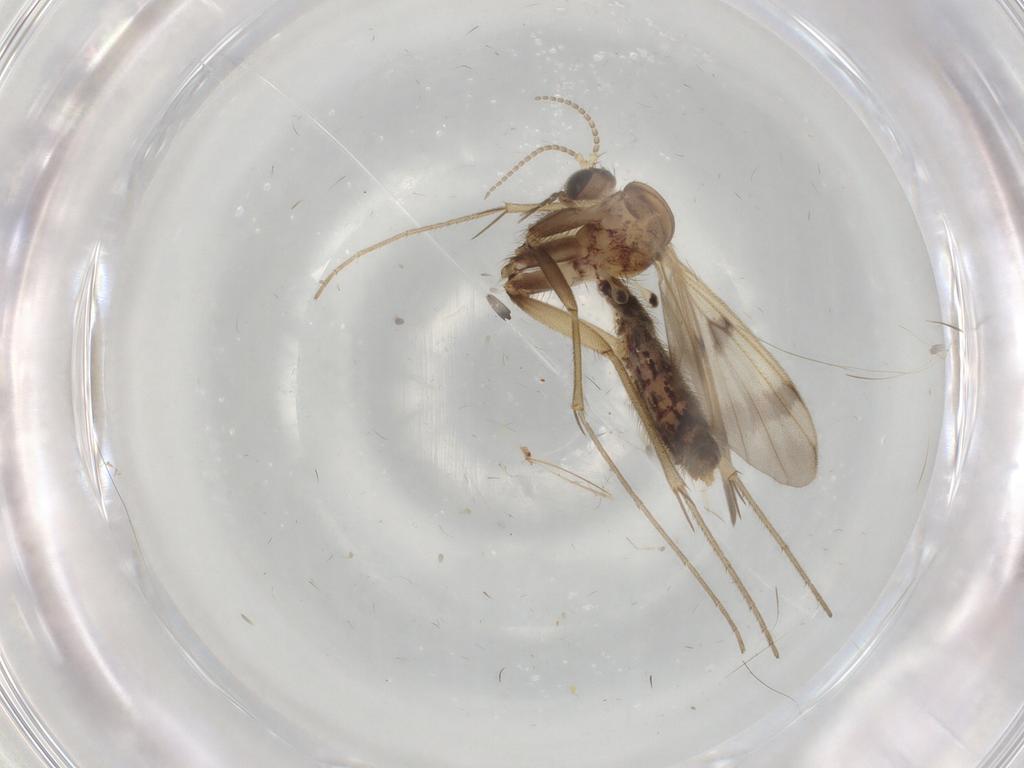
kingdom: Animalia
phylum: Arthropoda
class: Insecta
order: Diptera
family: Mycetophilidae
